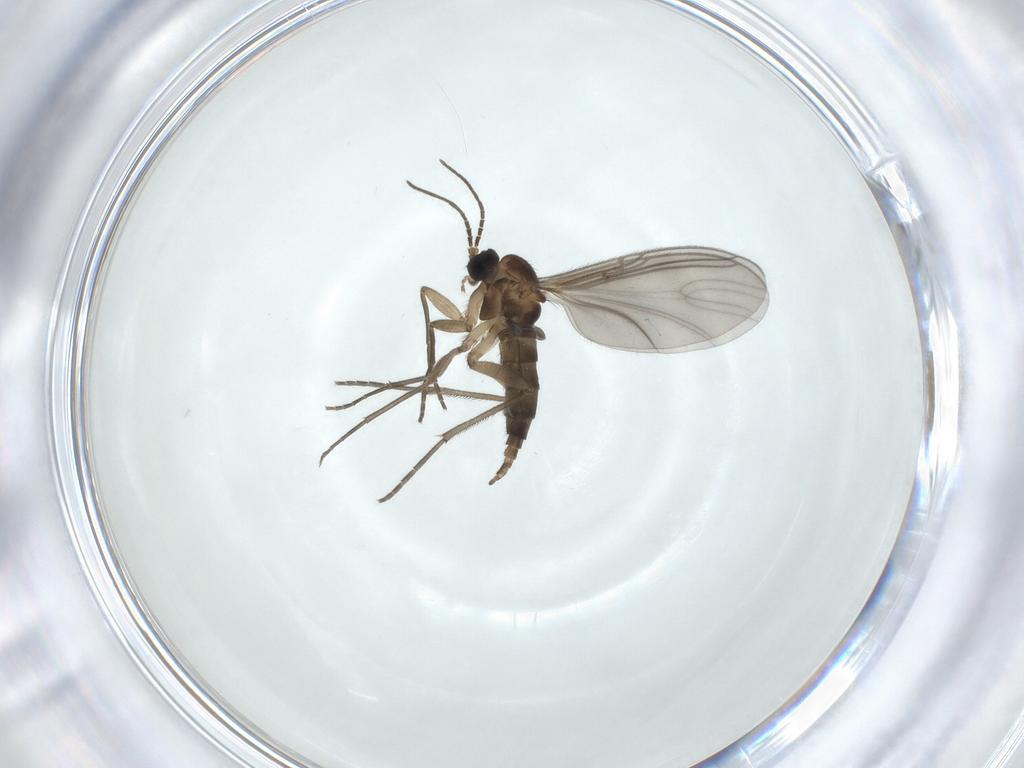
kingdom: Animalia
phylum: Arthropoda
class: Insecta
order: Diptera
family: Sciaridae
